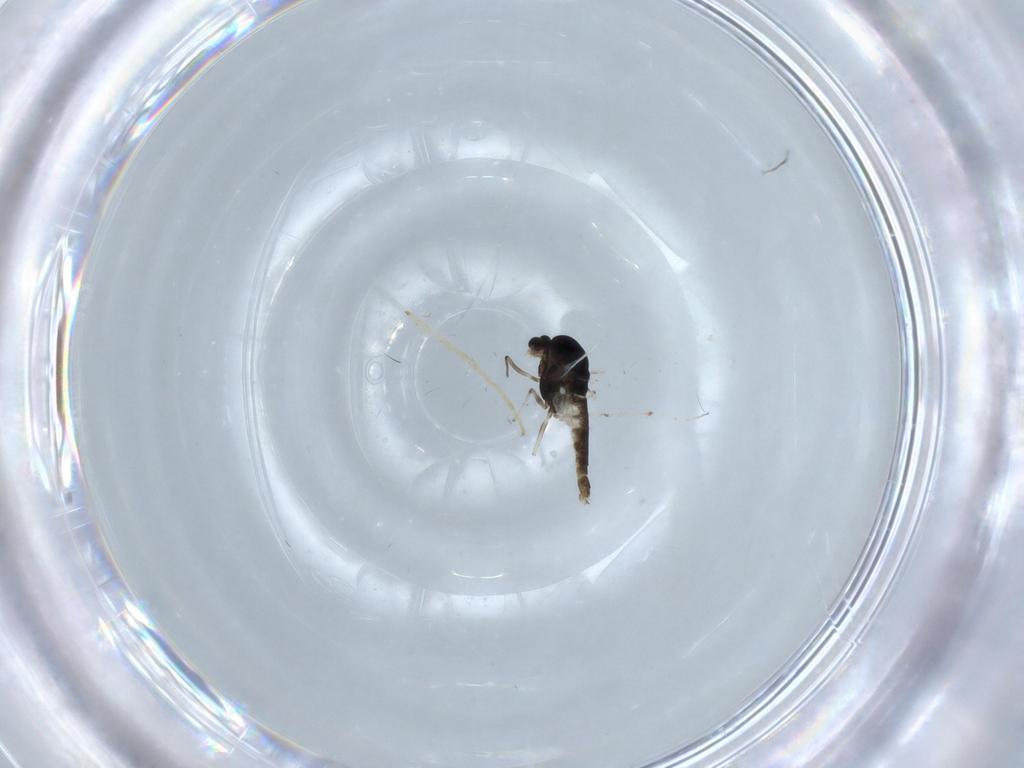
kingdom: Animalia
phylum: Arthropoda
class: Insecta
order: Diptera
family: Chironomidae
